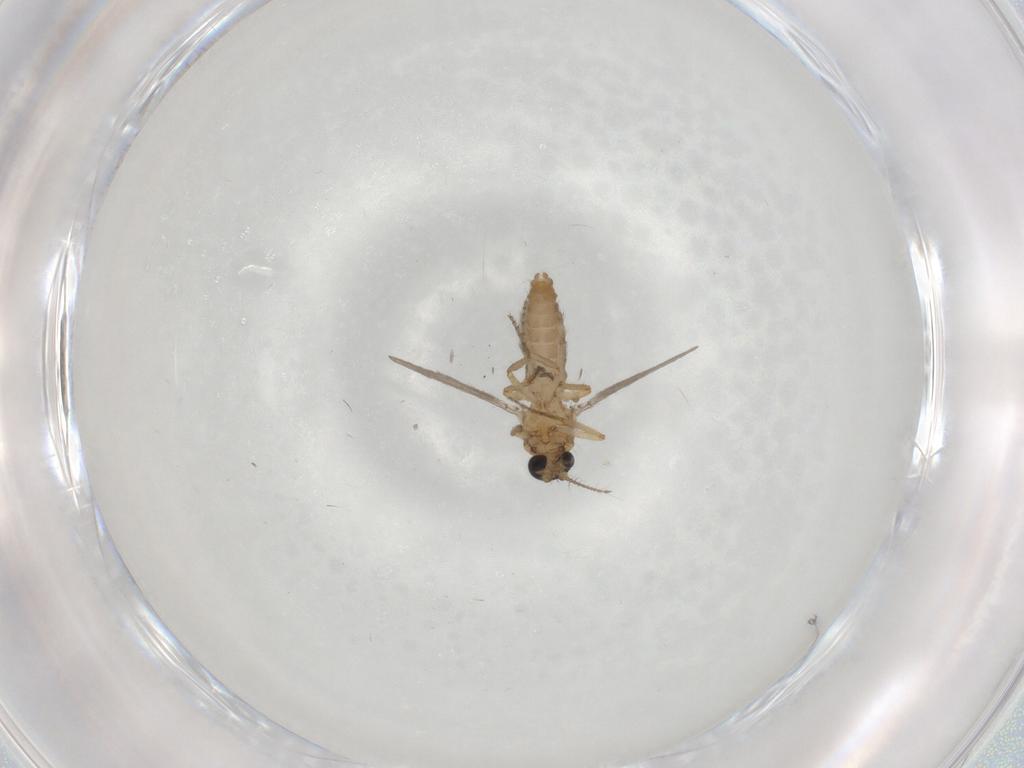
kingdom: Animalia
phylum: Arthropoda
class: Insecta
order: Diptera
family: Ceratopogonidae
